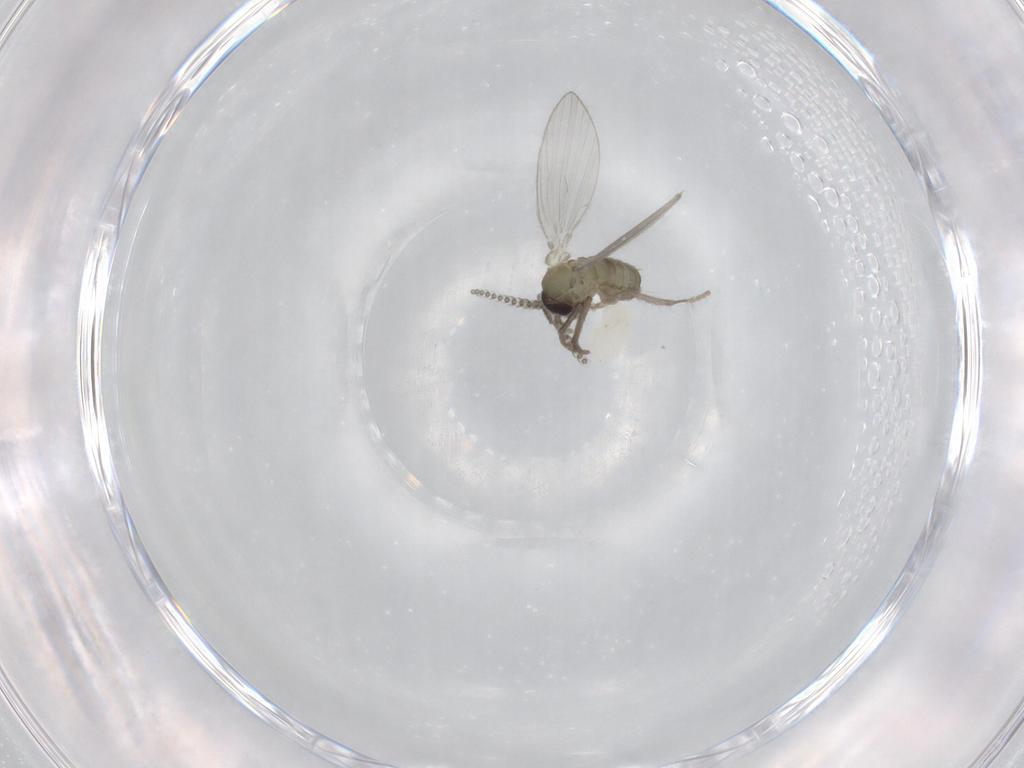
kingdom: Animalia
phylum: Arthropoda
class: Insecta
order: Diptera
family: Psychodidae
